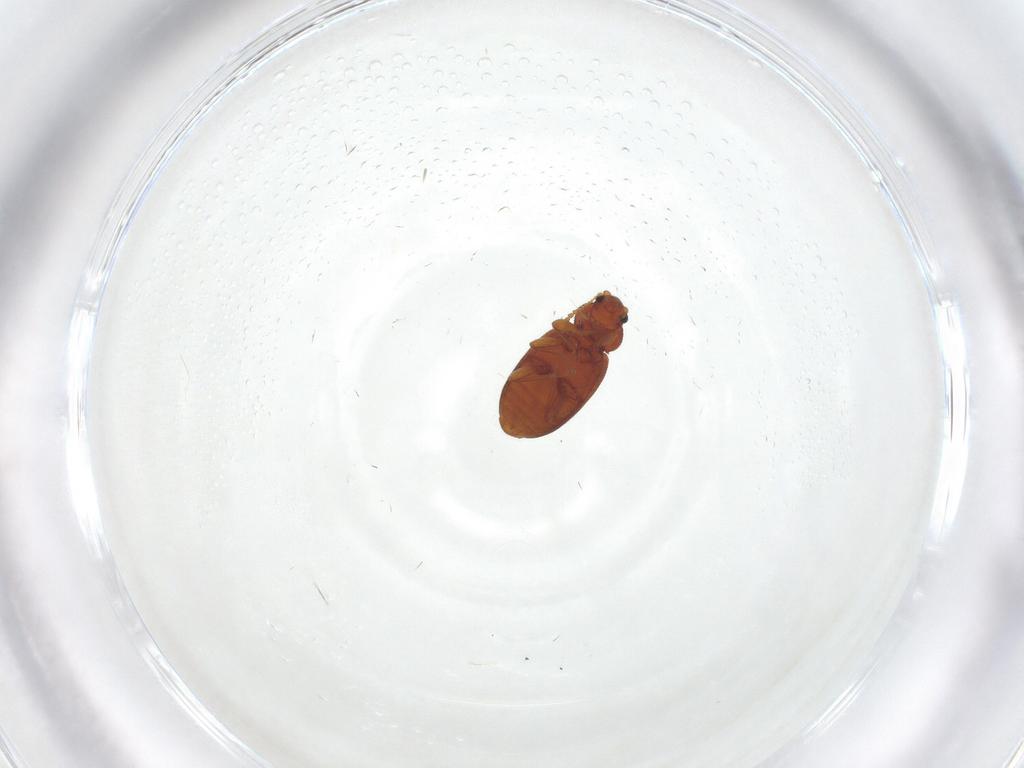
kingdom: Animalia
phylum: Arthropoda
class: Insecta
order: Coleoptera
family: Latridiidae
